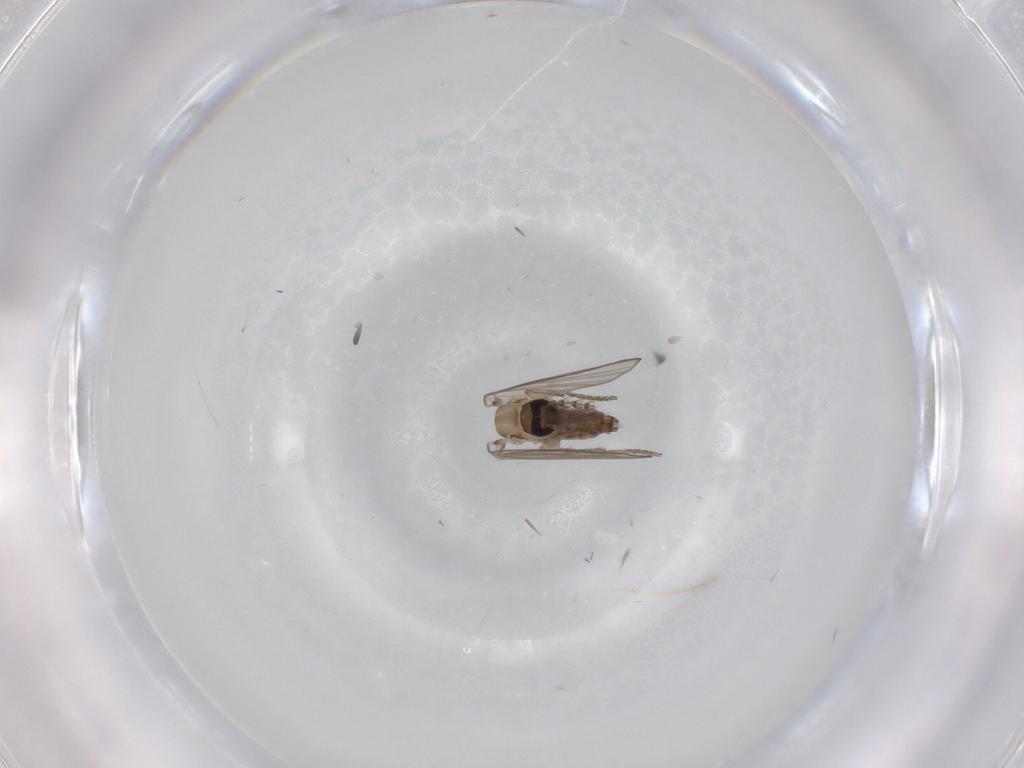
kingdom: Animalia
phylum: Arthropoda
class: Insecta
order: Diptera
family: Psychodidae
